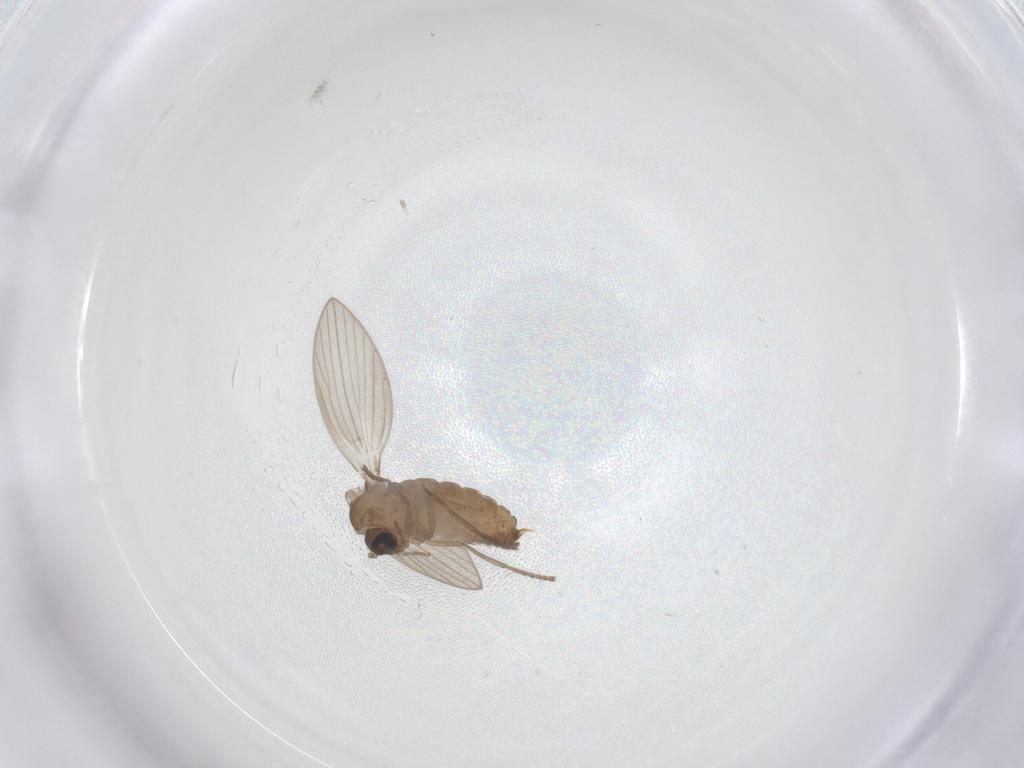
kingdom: Animalia
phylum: Arthropoda
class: Insecta
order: Diptera
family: Psychodidae
